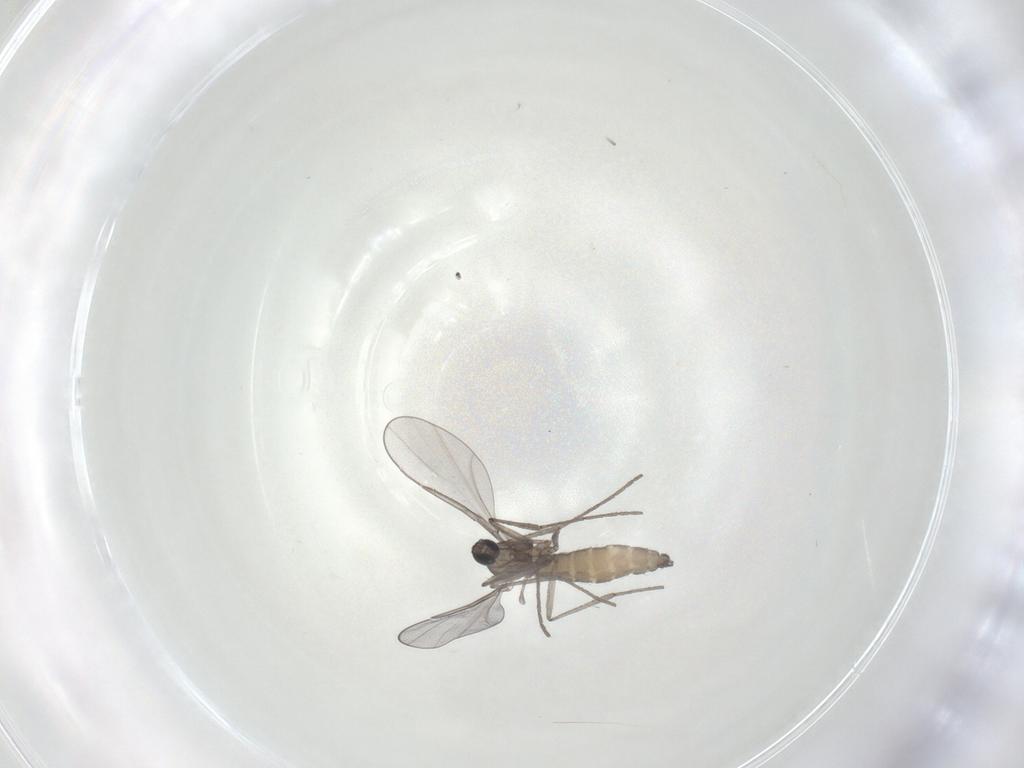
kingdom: Animalia
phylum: Arthropoda
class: Insecta
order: Diptera
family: Cecidomyiidae
